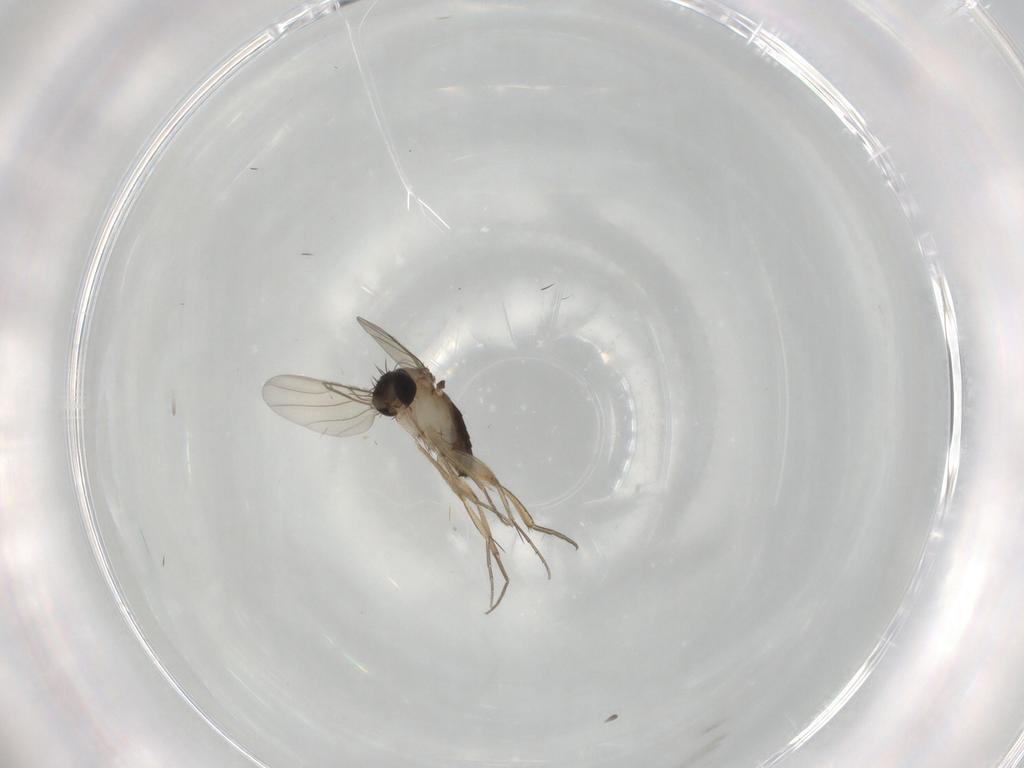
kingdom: Animalia
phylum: Arthropoda
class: Insecta
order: Diptera
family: Phoridae
